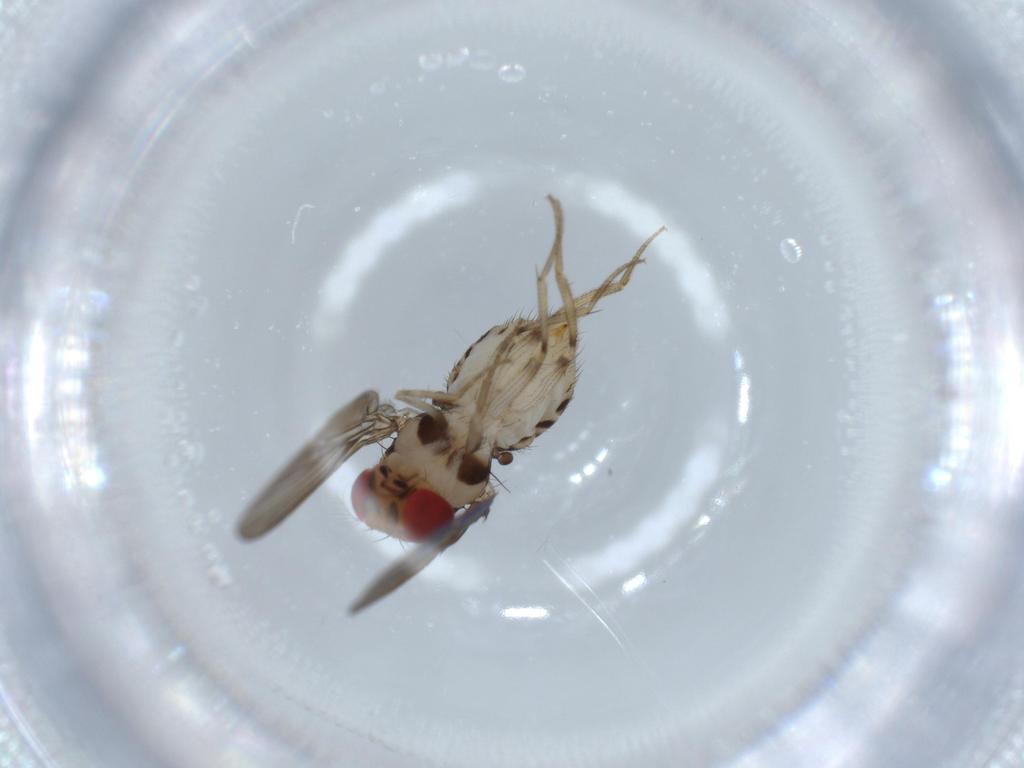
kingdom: Animalia
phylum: Arthropoda
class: Insecta
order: Diptera
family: Drosophilidae
